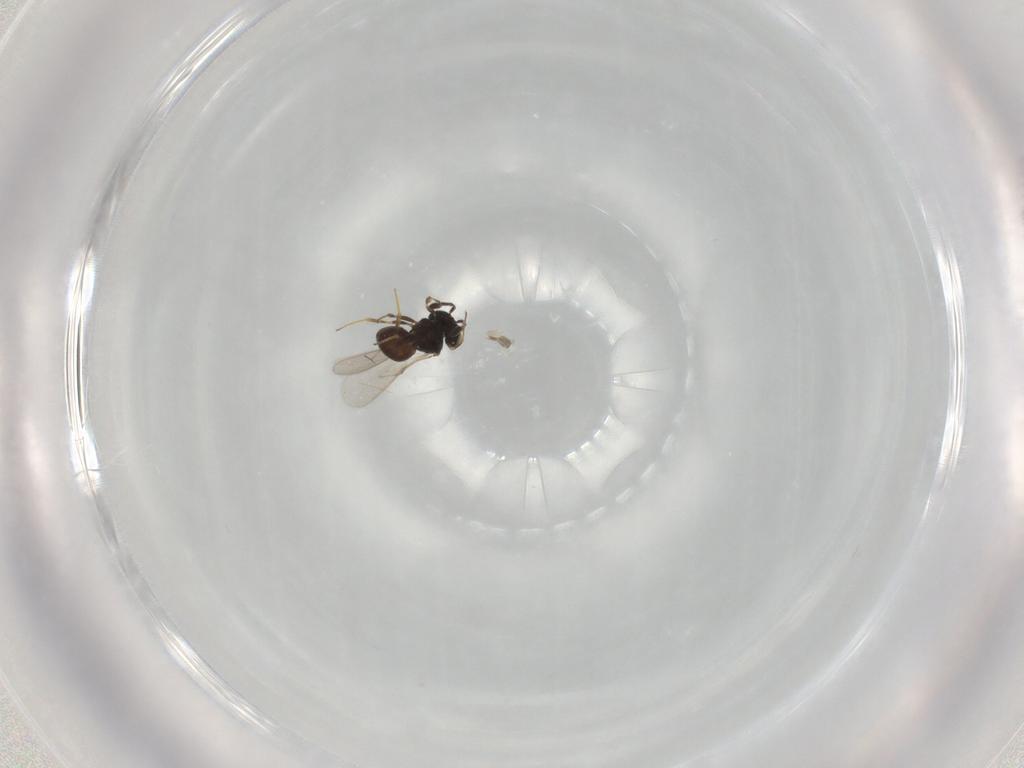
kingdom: Animalia
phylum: Arthropoda
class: Insecta
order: Hymenoptera
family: Scelionidae
